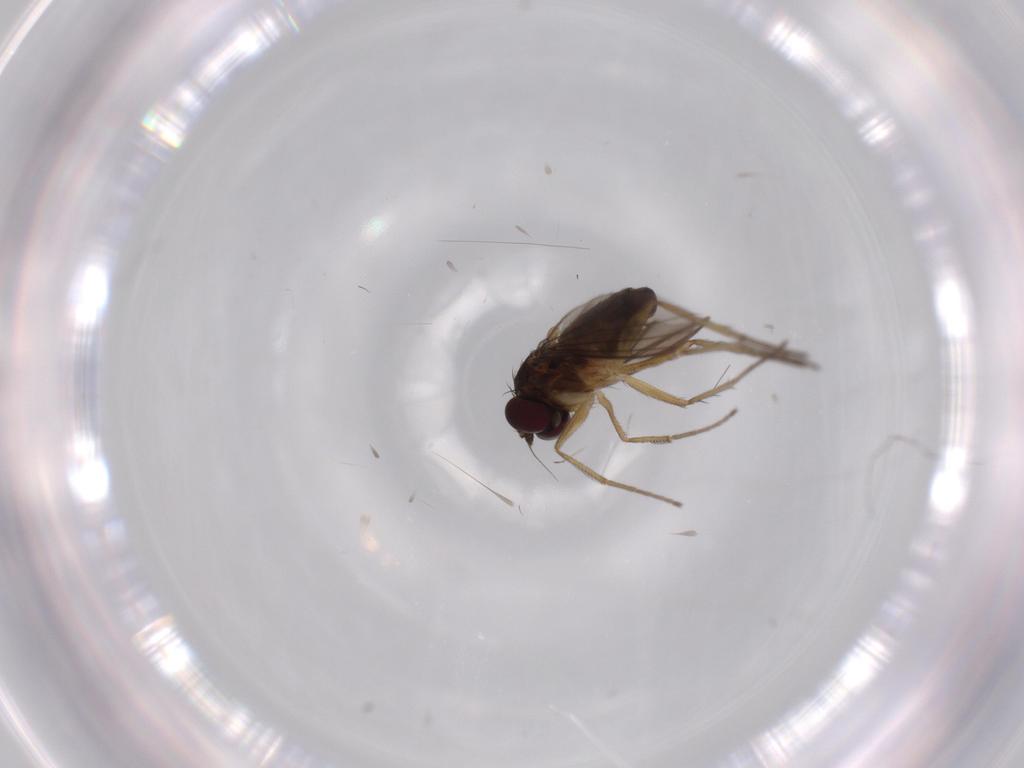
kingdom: Animalia
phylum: Arthropoda
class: Insecta
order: Diptera
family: Dolichopodidae
